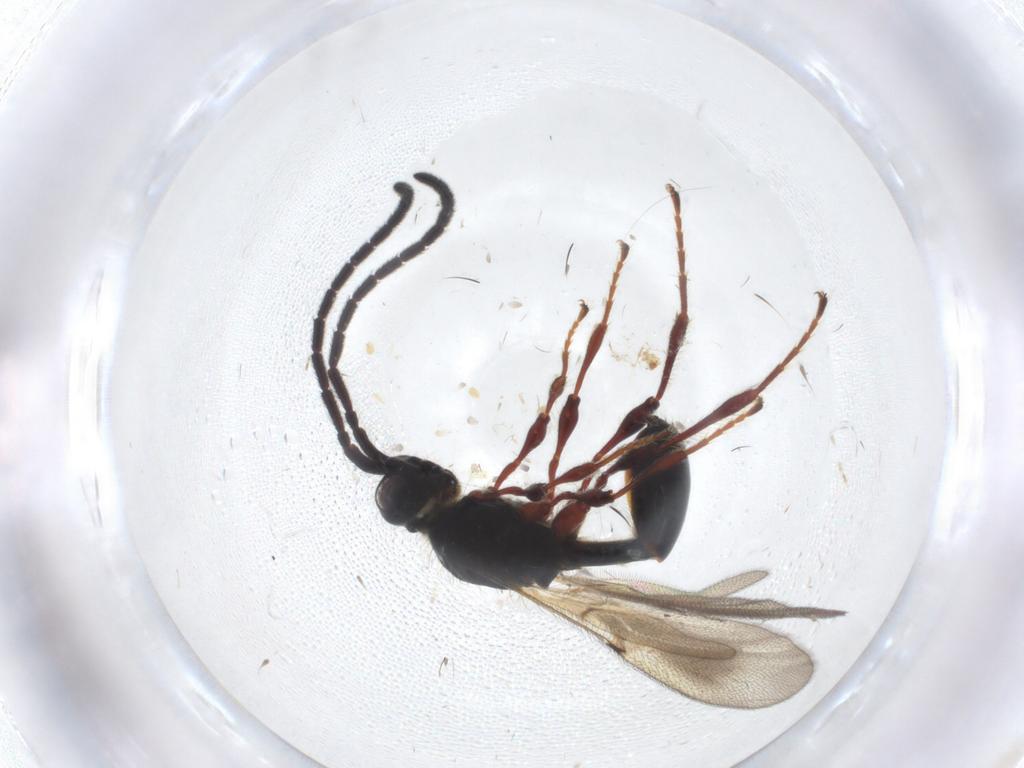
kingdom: Animalia
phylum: Arthropoda
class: Insecta
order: Hymenoptera
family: Diapriidae
